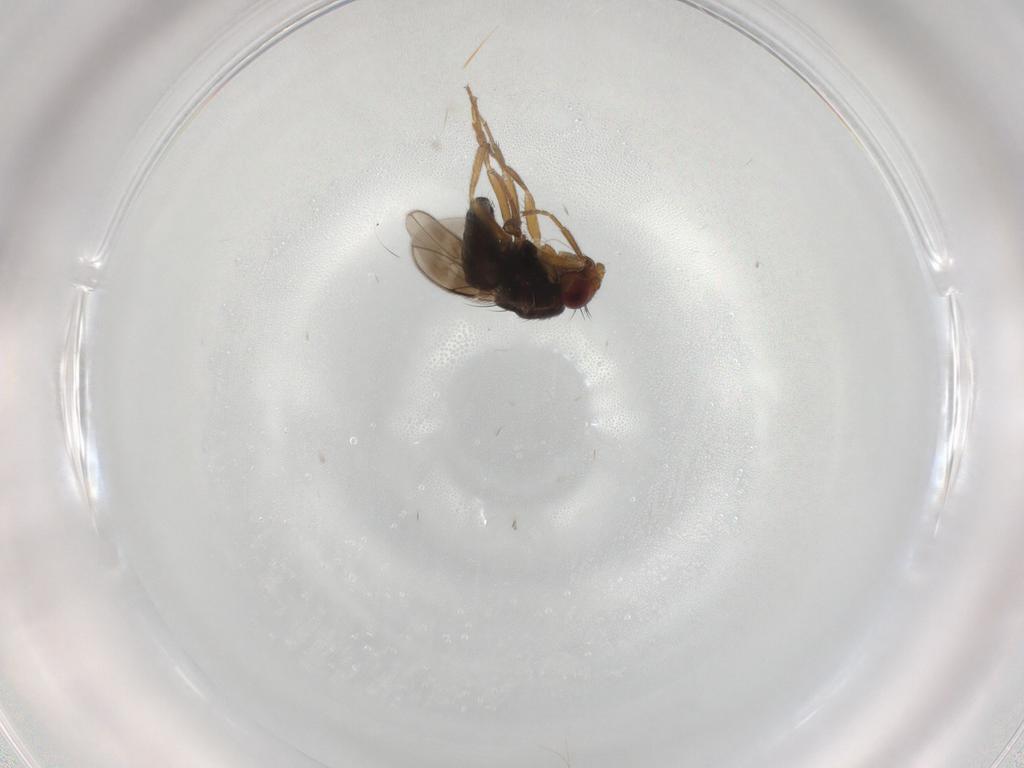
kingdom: Animalia
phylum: Arthropoda
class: Insecta
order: Diptera
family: Sphaeroceridae
